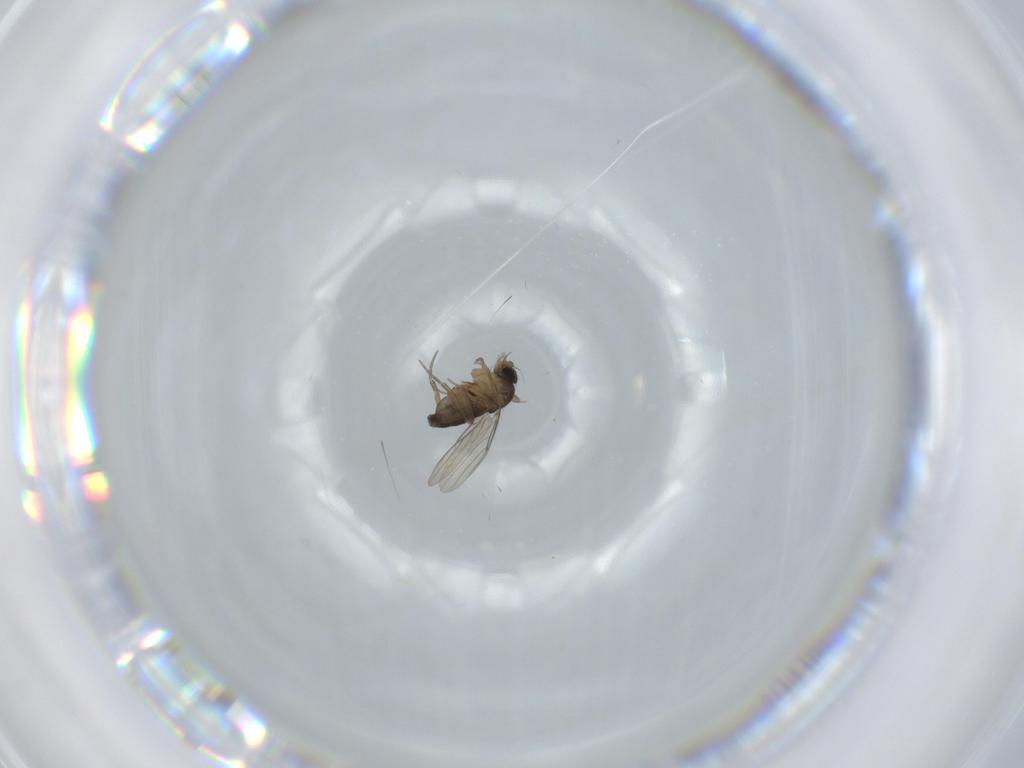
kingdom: Animalia
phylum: Arthropoda
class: Insecta
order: Diptera
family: Phoridae
